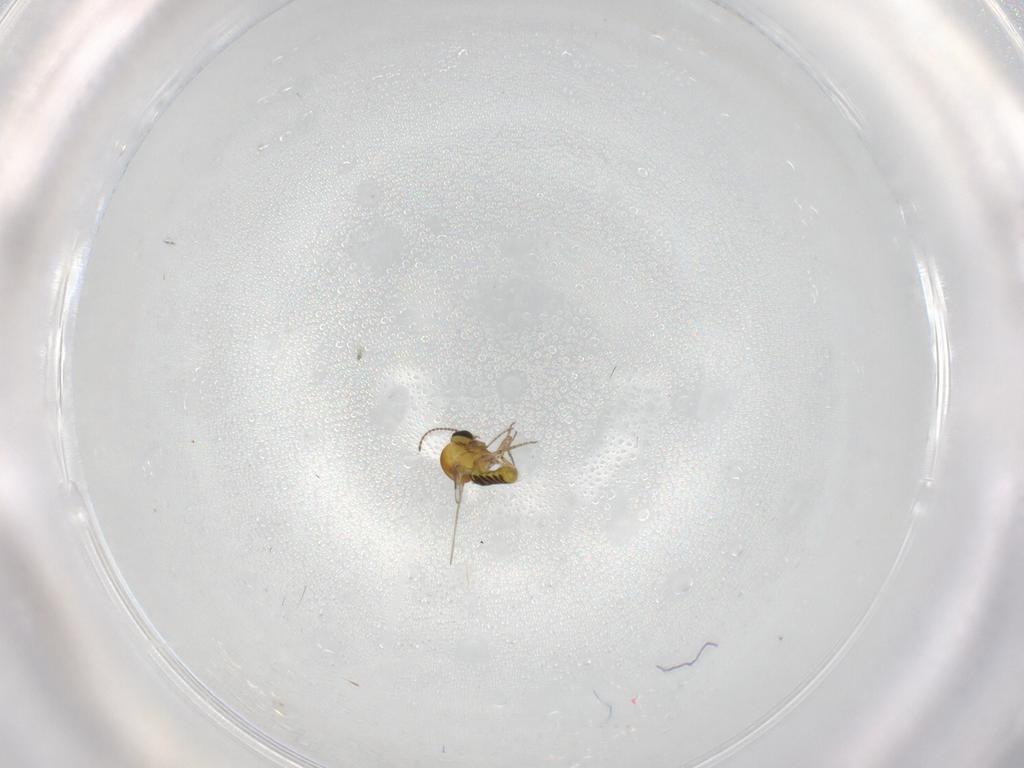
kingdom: Animalia
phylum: Arthropoda
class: Insecta
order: Diptera
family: Ceratopogonidae
